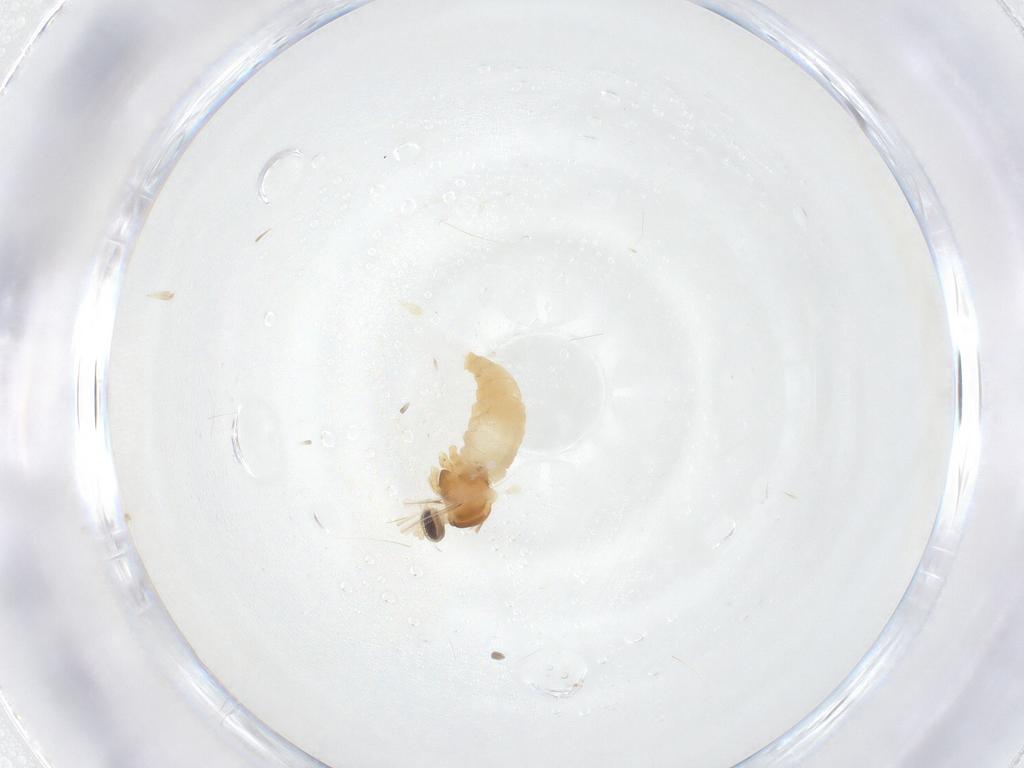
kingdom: Animalia
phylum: Arthropoda
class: Insecta
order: Diptera
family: Cecidomyiidae
